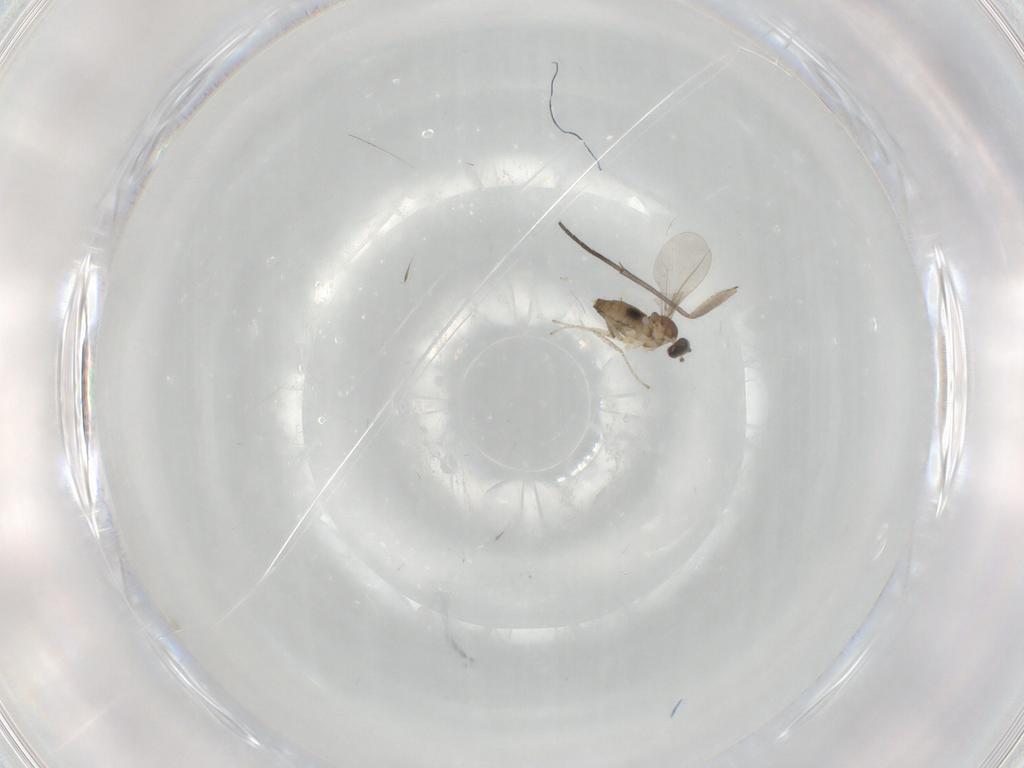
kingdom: Animalia
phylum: Arthropoda
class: Insecta
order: Diptera
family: Sciaridae
